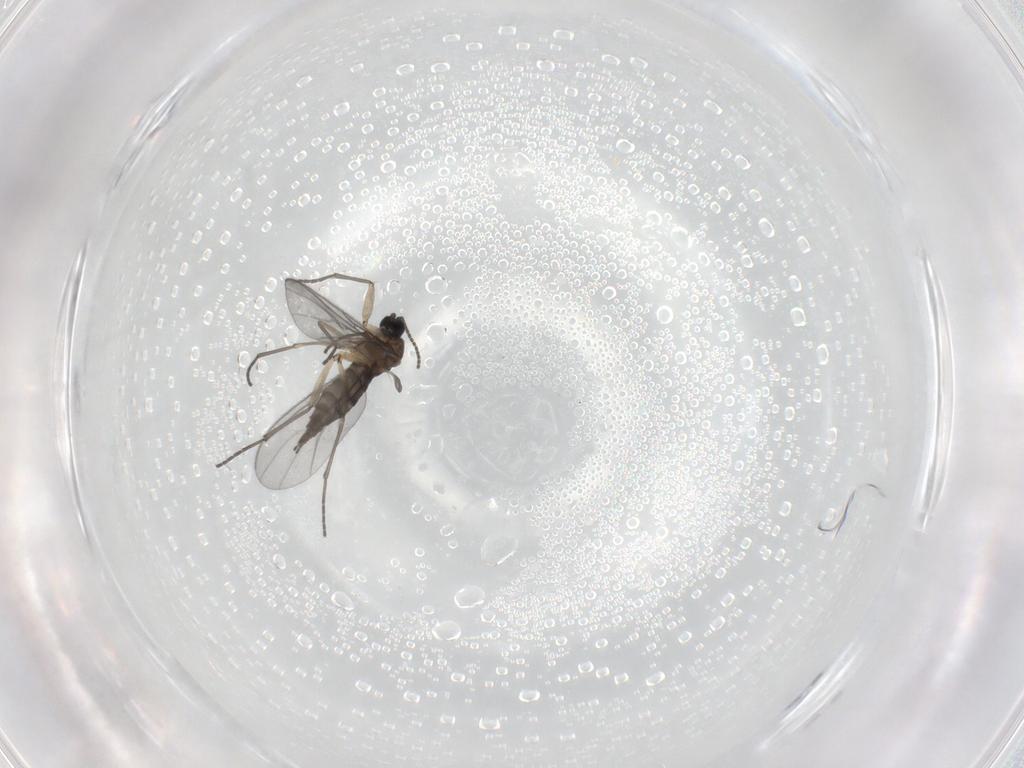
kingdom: Animalia
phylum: Arthropoda
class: Insecta
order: Diptera
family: Sciaridae
